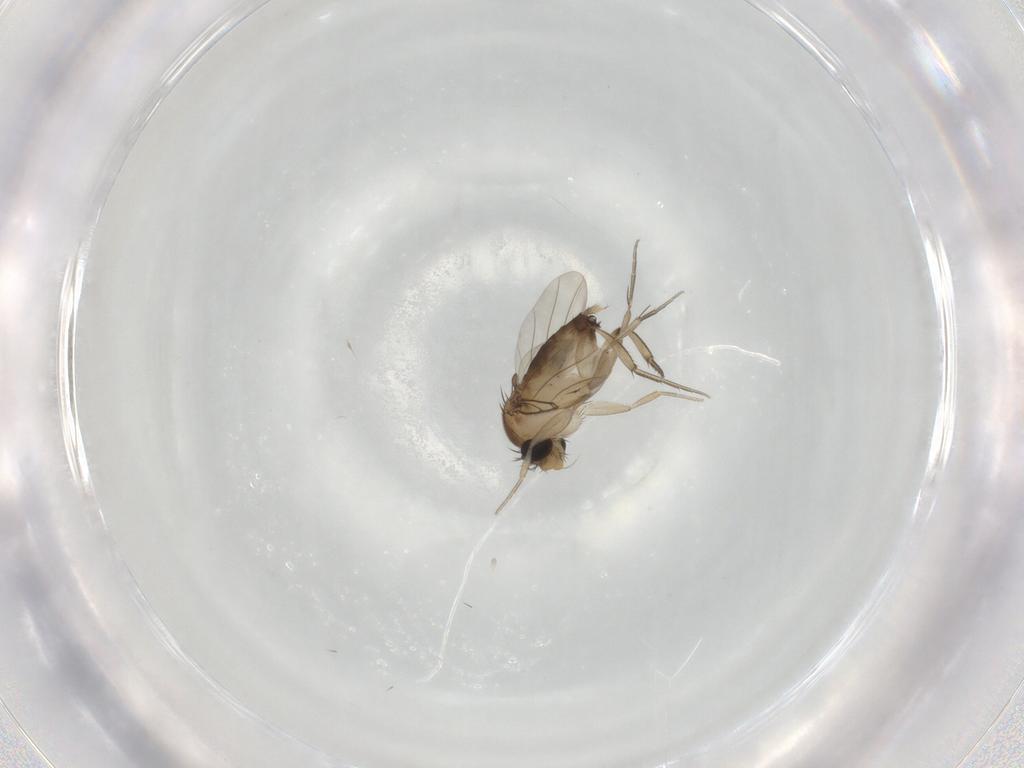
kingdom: Animalia
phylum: Arthropoda
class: Insecta
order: Diptera
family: Phoridae
